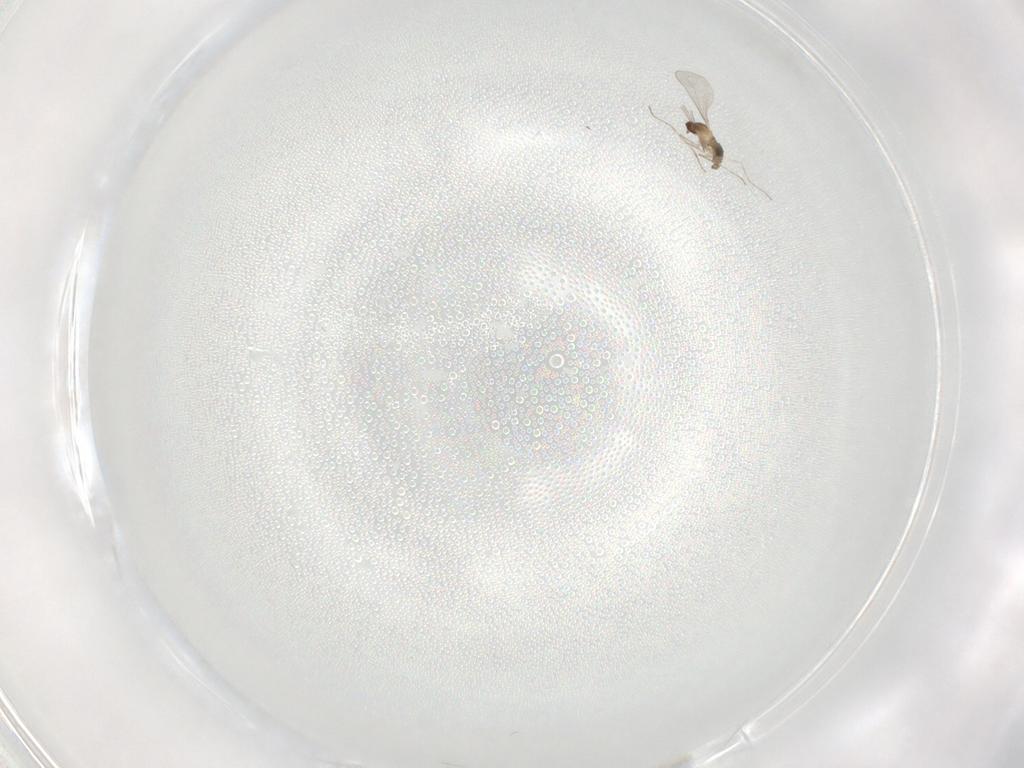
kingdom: Animalia
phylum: Arthropoda
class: Insecta
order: Diptera
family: Cecidomyiidae
